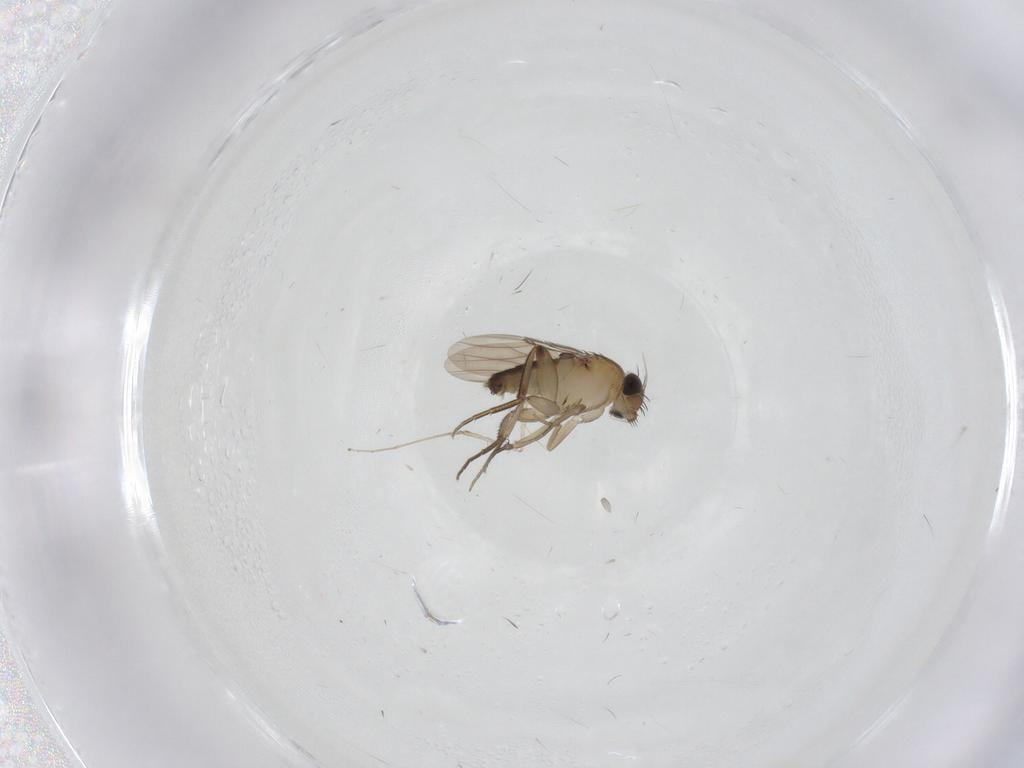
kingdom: Animalia
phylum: Arthropoda
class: Insecta
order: Diptera
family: Phoridae
